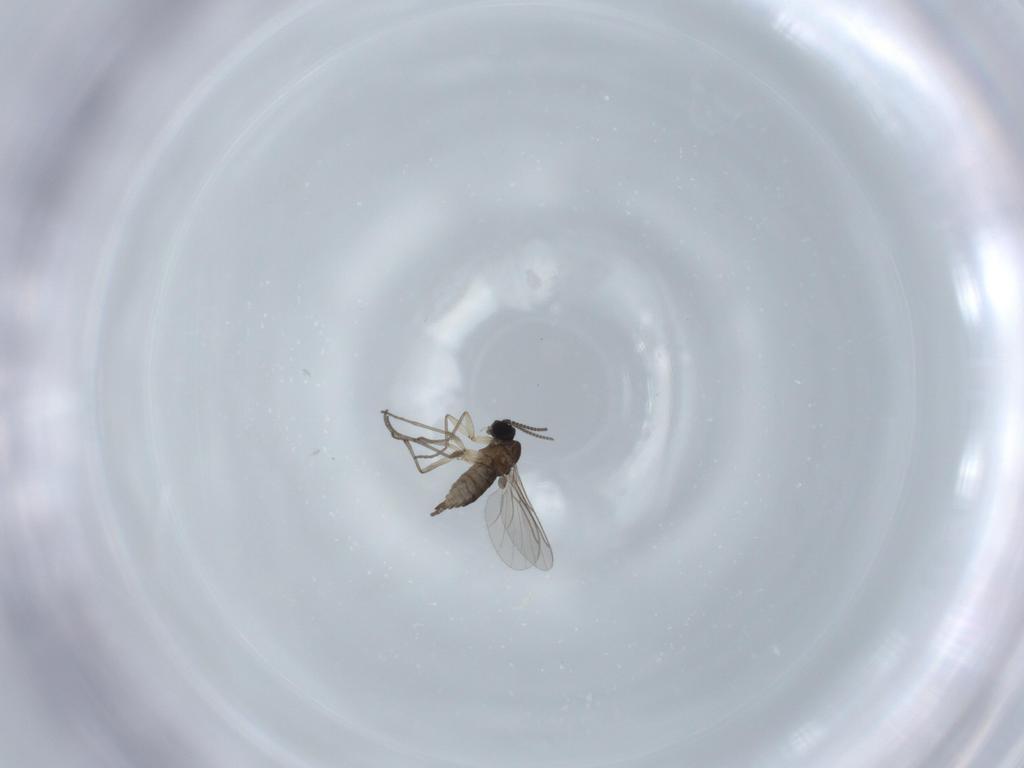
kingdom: Animalia
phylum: Arthropoda
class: Insecta
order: Diptera
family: Sciaridae
